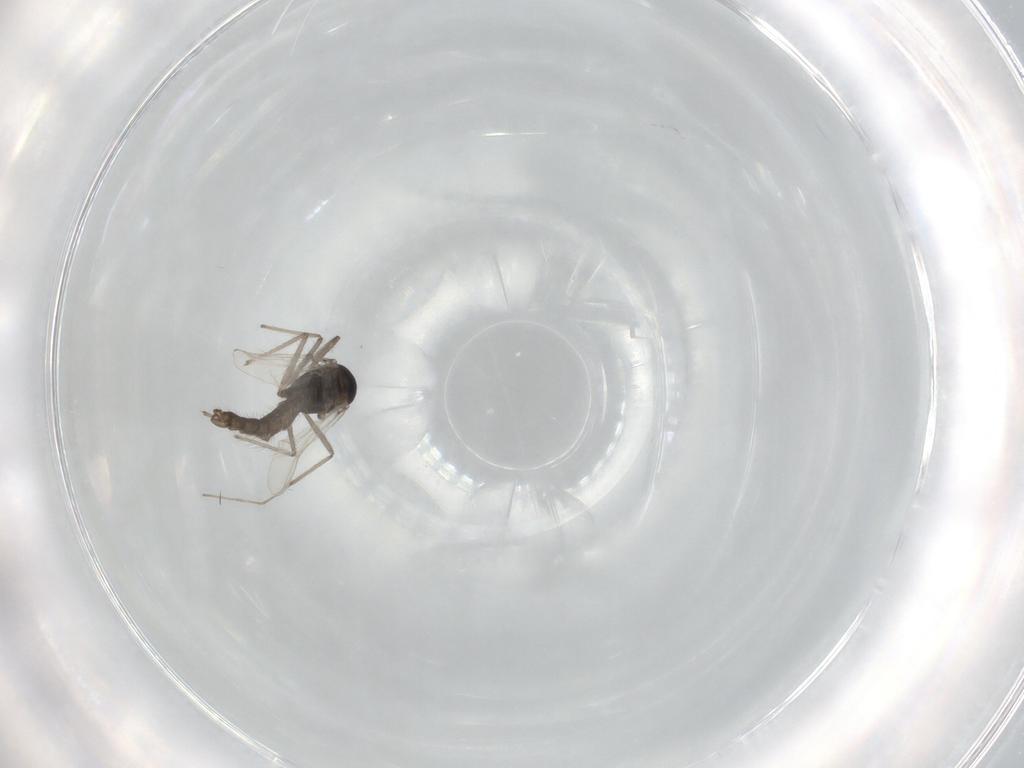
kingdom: Animalia
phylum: Arthropoda
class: Insecta
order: Diptera
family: Chironomidae
